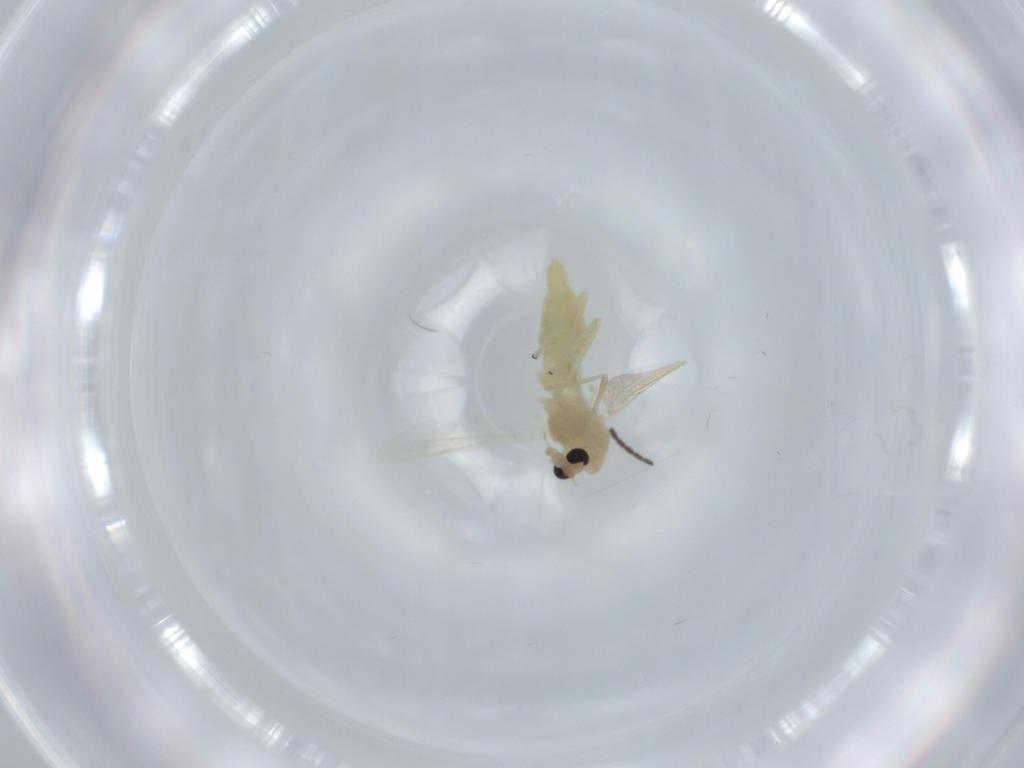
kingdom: Animalia
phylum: Arthropoda
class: Insecta
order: Diptera
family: Chironomidae
